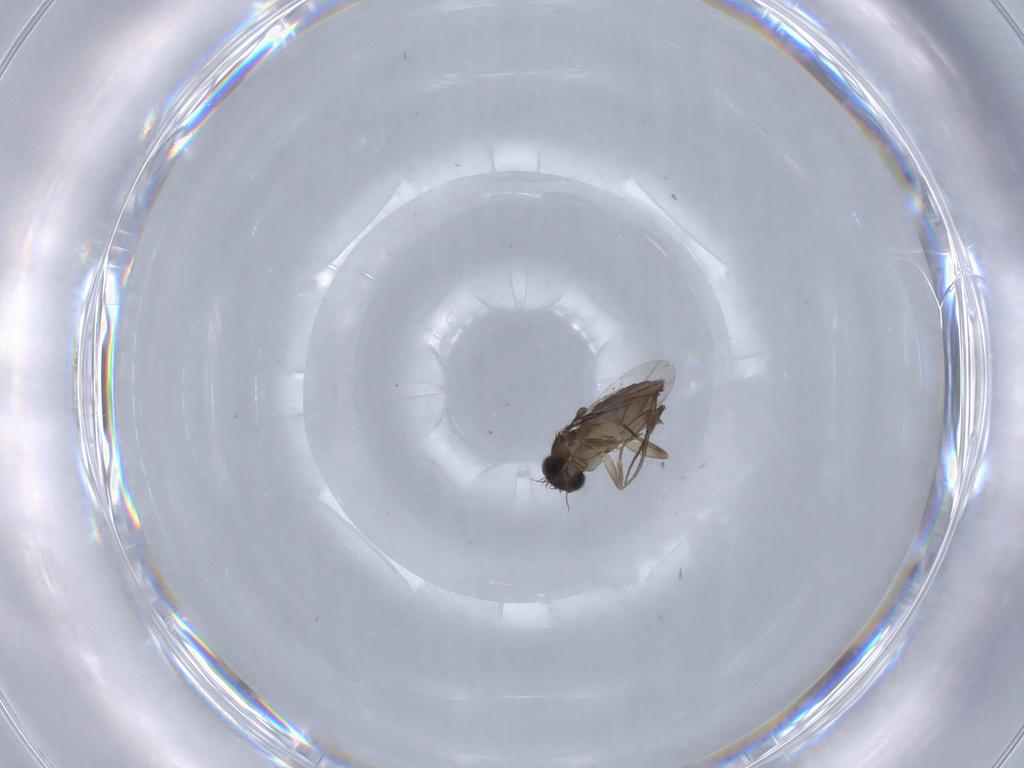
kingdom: Animalia
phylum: Arthropoda
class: Insecta
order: Diptera
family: Phoridae
